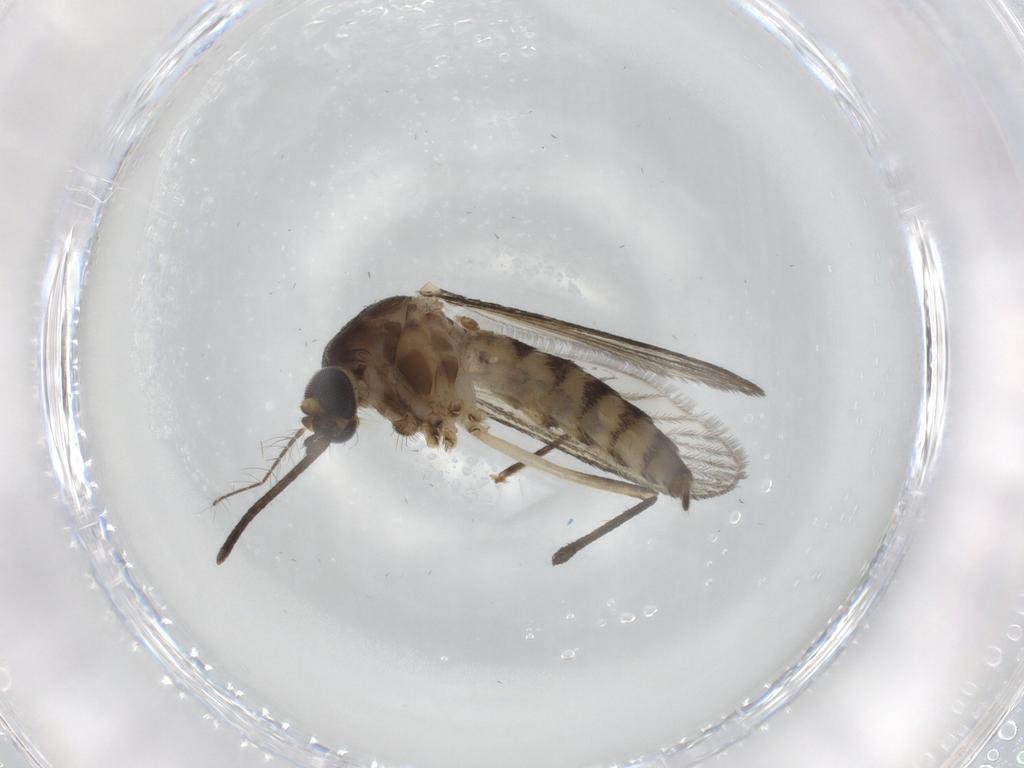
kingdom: Animalia
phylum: Arthropoda
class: Insecta
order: Diptera
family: Chironomidae
